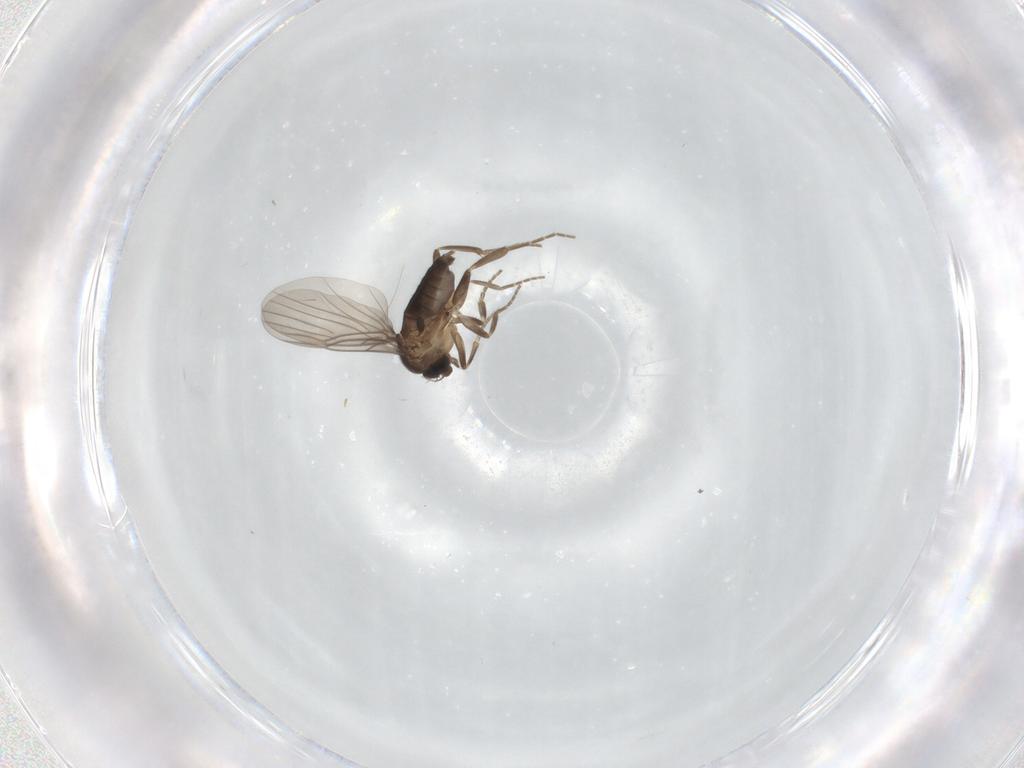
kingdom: Animalia
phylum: Arthropoda
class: Insecta
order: Diptera
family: Phoridae
